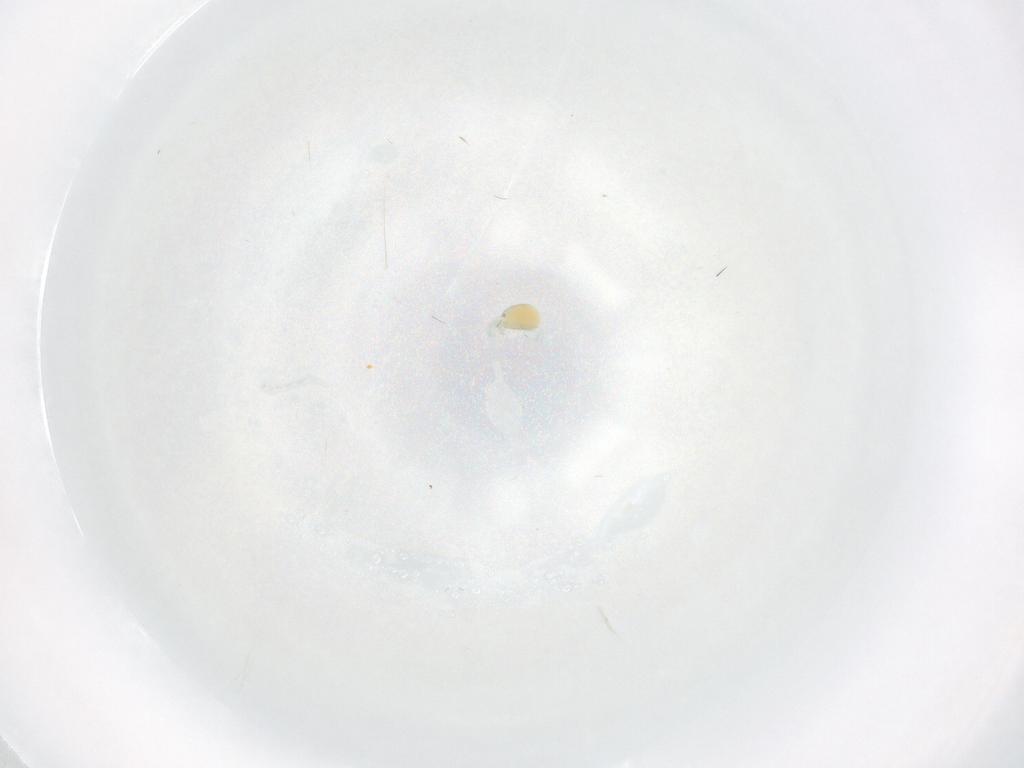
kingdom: Animalia
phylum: Arthropoda
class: Arachnida
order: Trombidiformes
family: Limnesiidae
